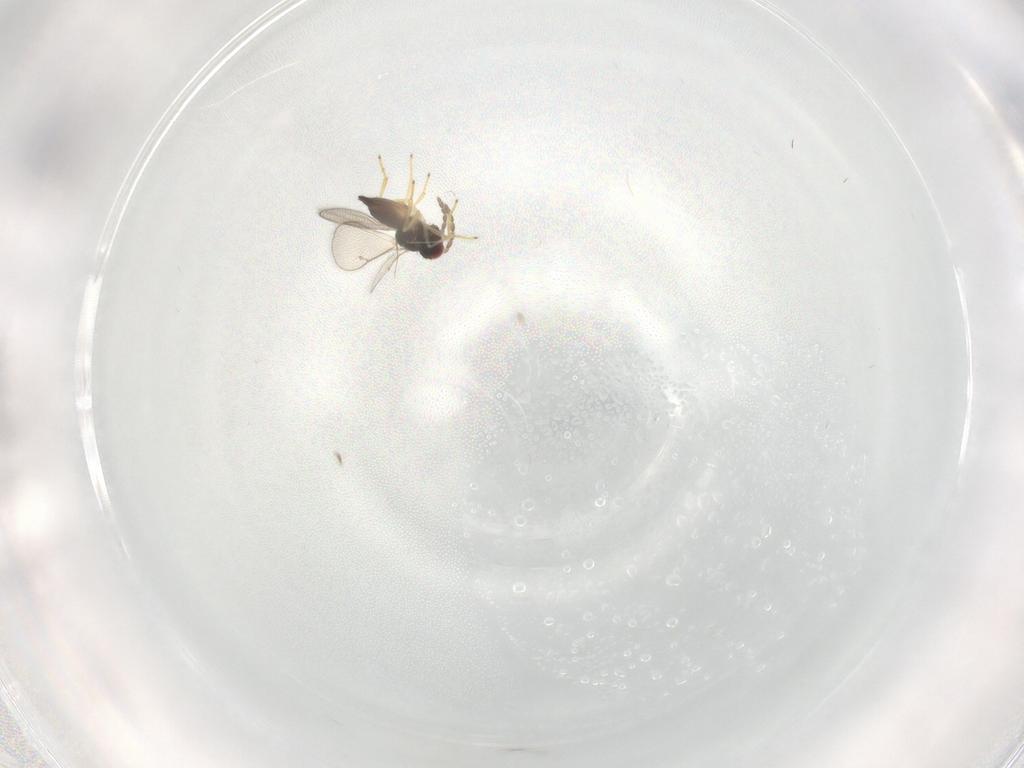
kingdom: Animalia
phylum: Arthropoda
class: Insecta
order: Hymenoptera
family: Eulophidae
